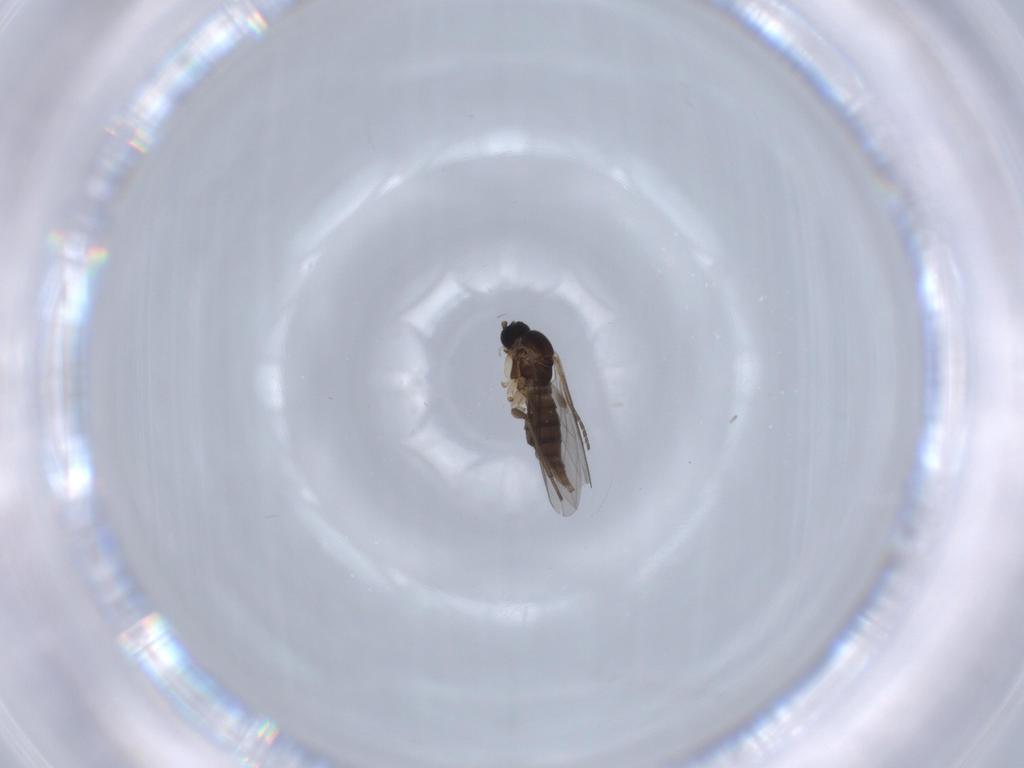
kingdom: Animalia
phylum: Arthropoda
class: Insecta
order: Diptera
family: Sciaridae
